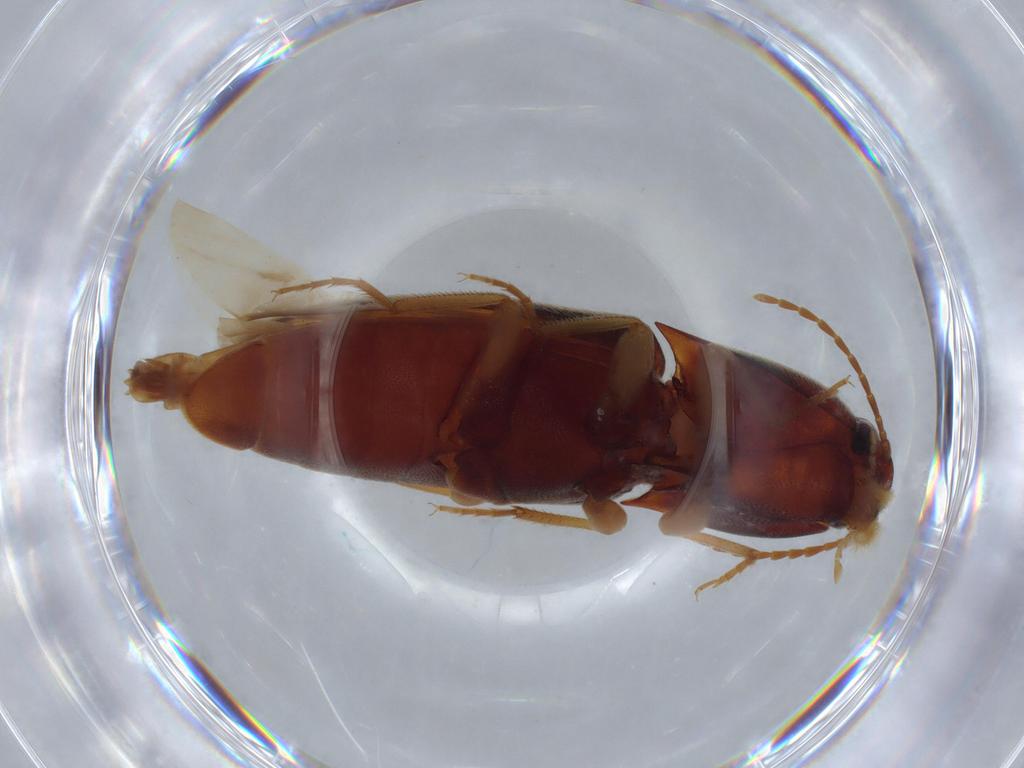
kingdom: Animalia
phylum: Arthropoda
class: Insecta
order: Coleoptera
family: Elateridae
